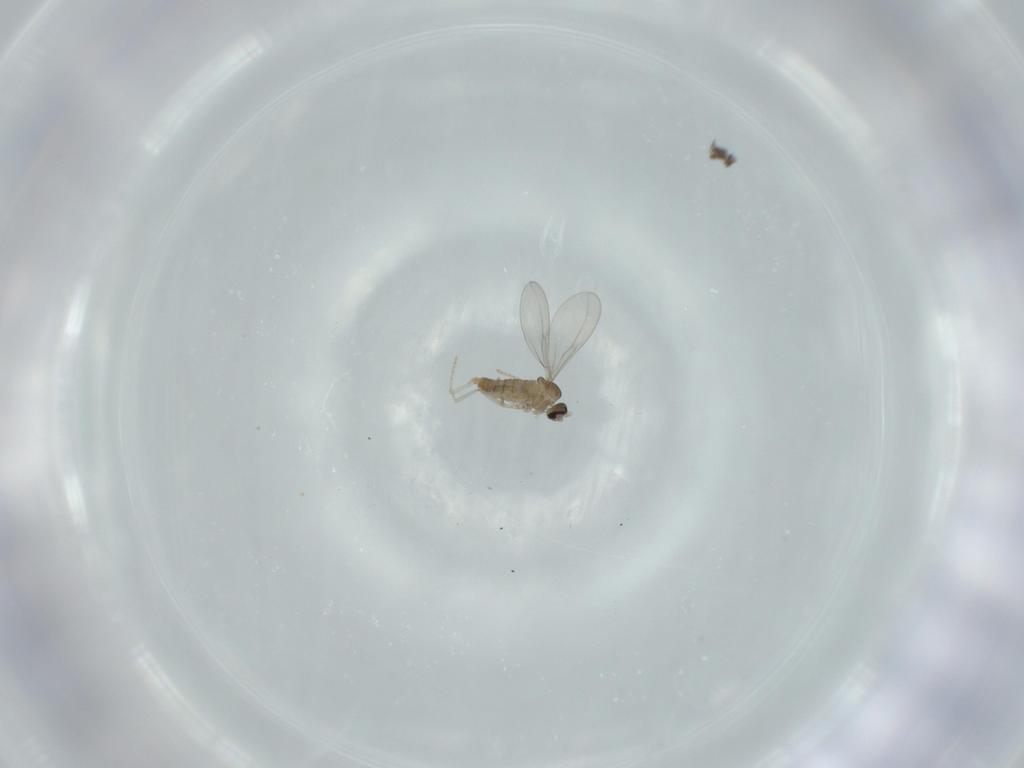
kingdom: Animalia
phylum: Arthropoda
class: Insecta
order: Diptera
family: Cecidomyiidae
